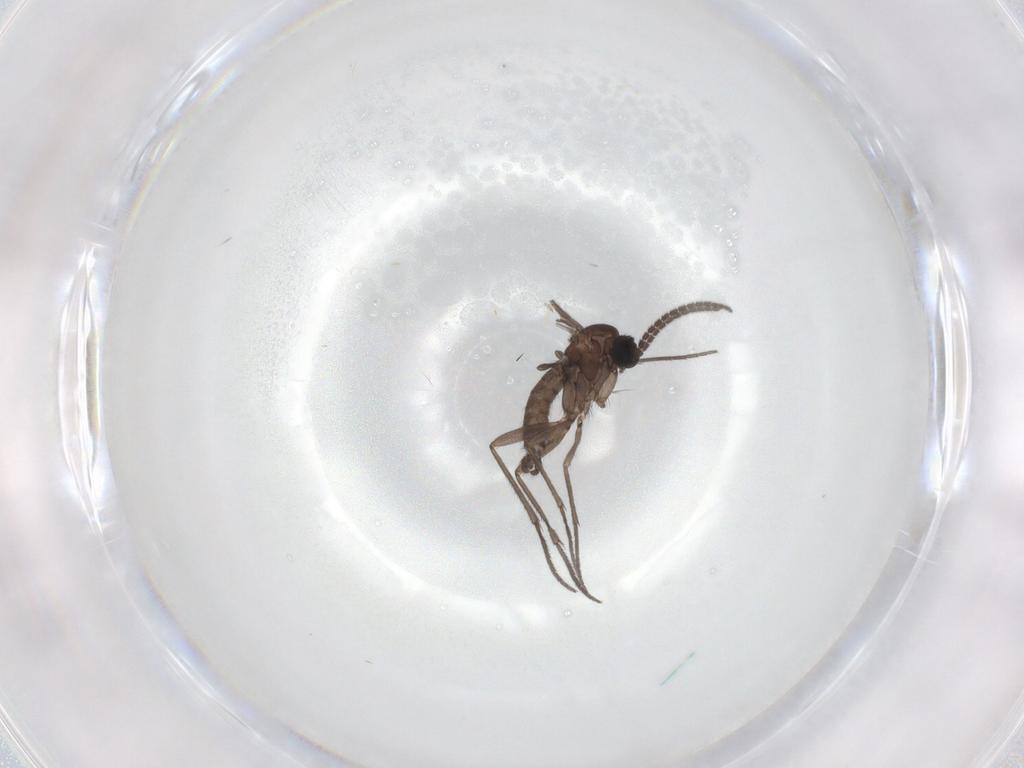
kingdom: Animalia
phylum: Arthropoda
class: Insecta
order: Diptera
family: Sciaridae
